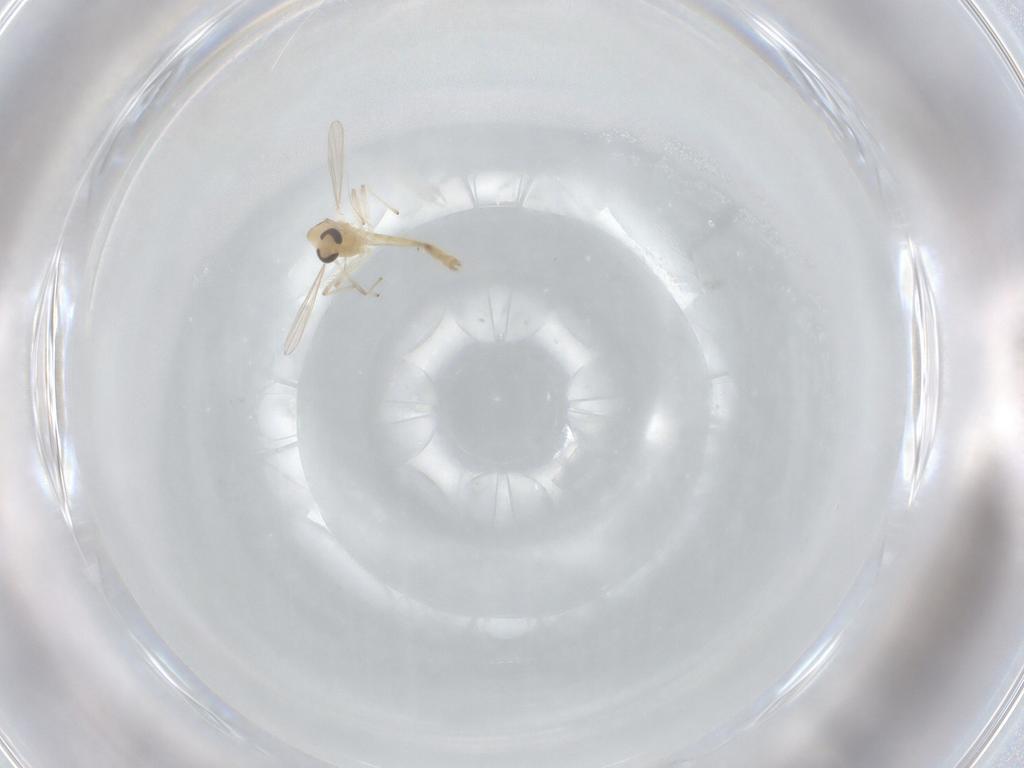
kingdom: Animalia
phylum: Arthropoda
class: Insecta
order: Diptera
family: Chironomidae
